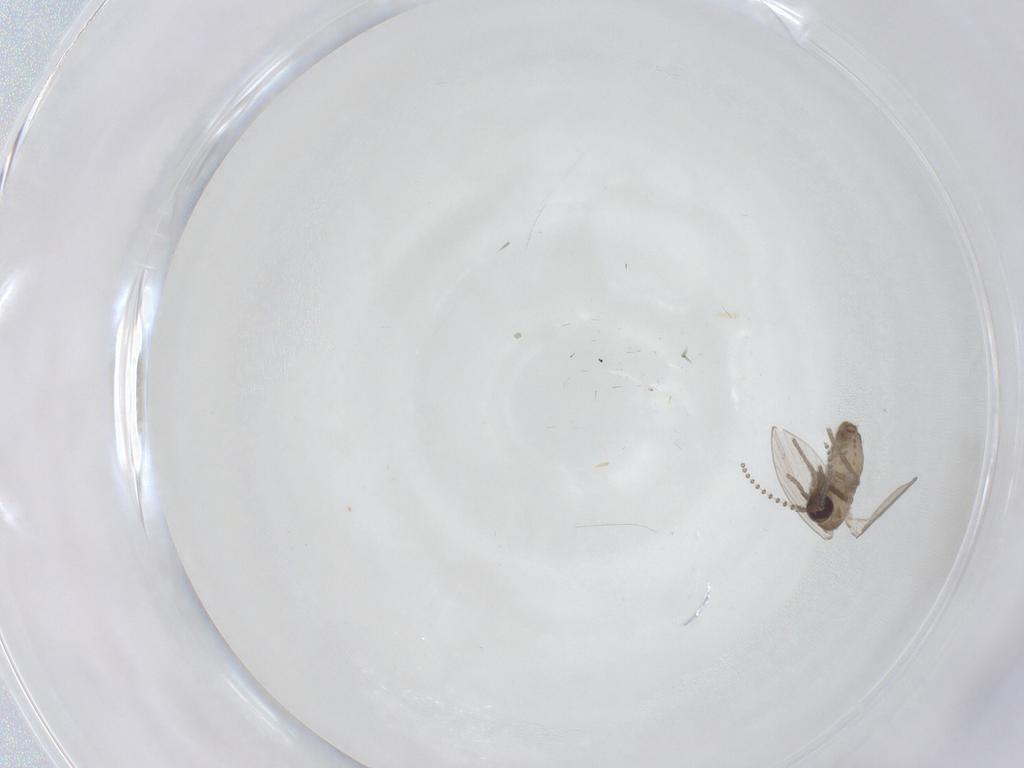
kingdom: Animalia
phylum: Arthropoda
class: Insecta
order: Diptera
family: Psychodidae
